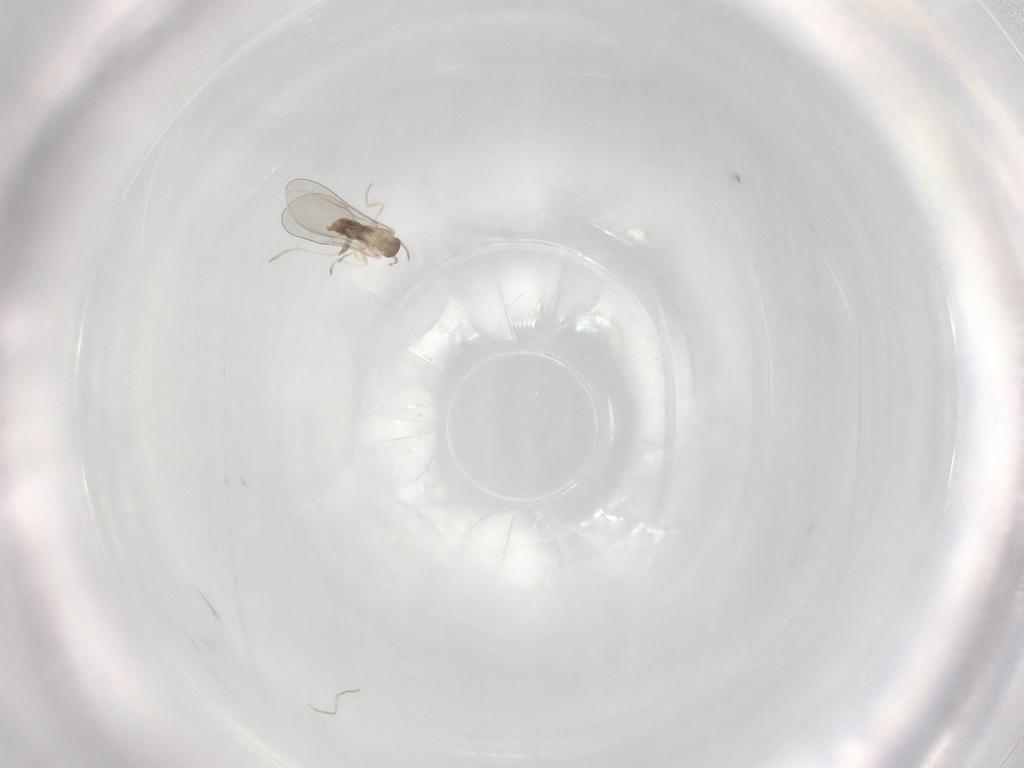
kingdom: Animalia
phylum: Arthropoda
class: Insecta
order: Diptera
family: Cecidomyiidae
